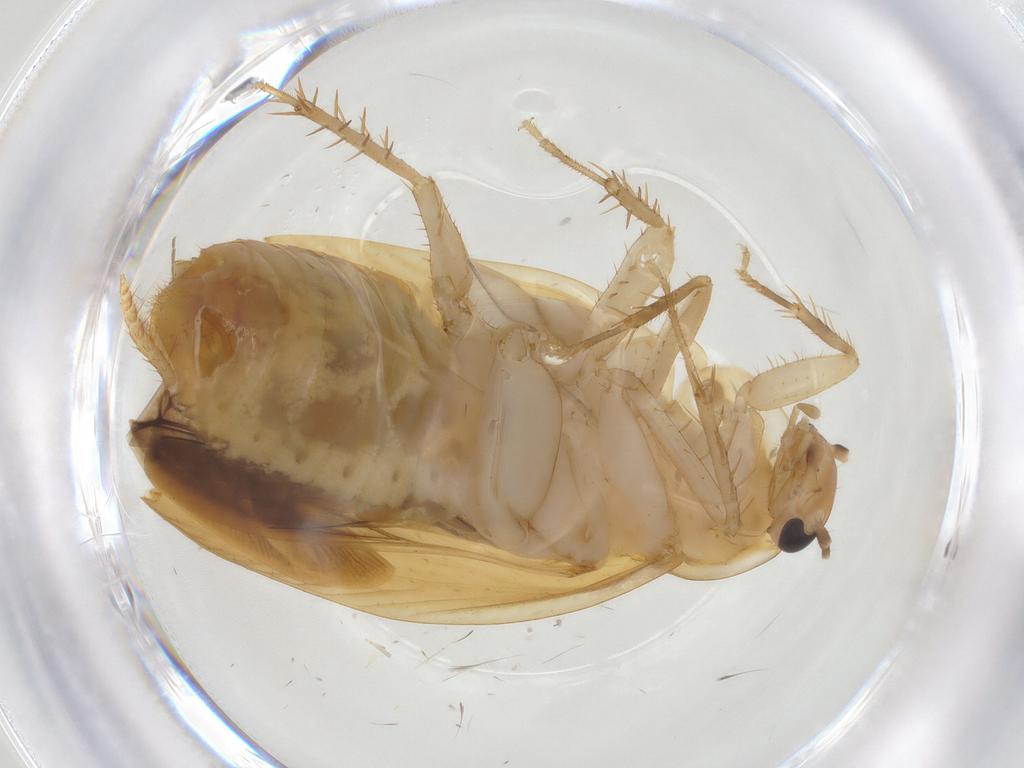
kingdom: Animalia
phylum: Arthropoda
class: Insecta
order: Blattodea
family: Blaberidae
